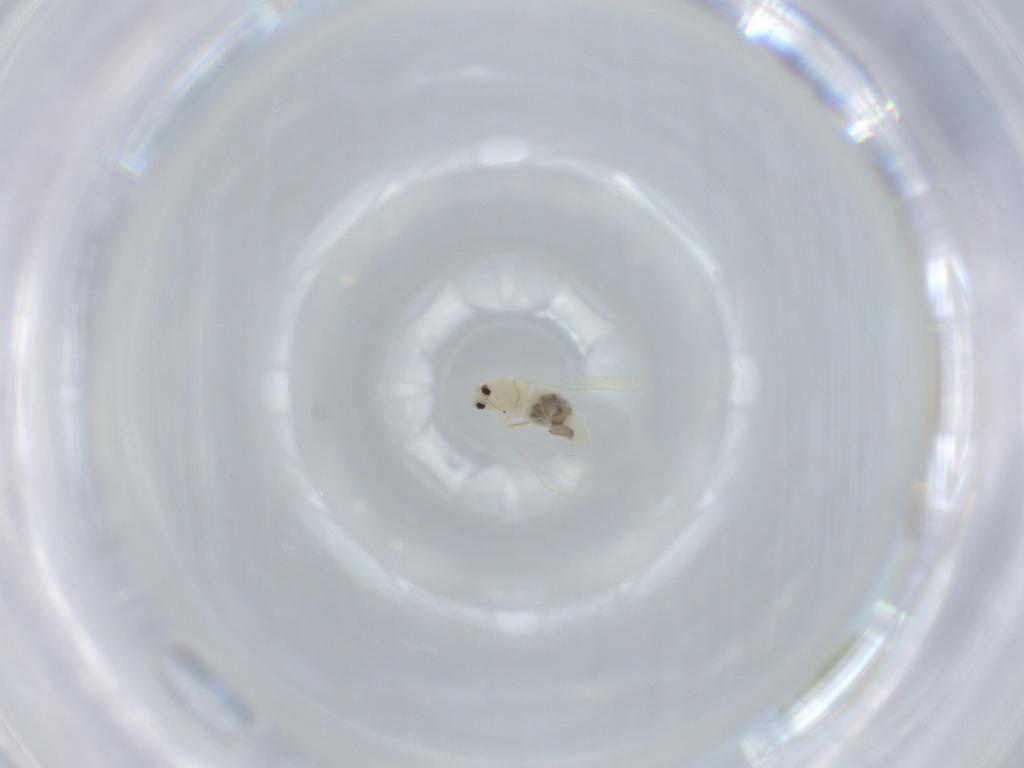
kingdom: Animalia
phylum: Arthropoda
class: Insecta
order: Hemiptera
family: Aleyrodidae
